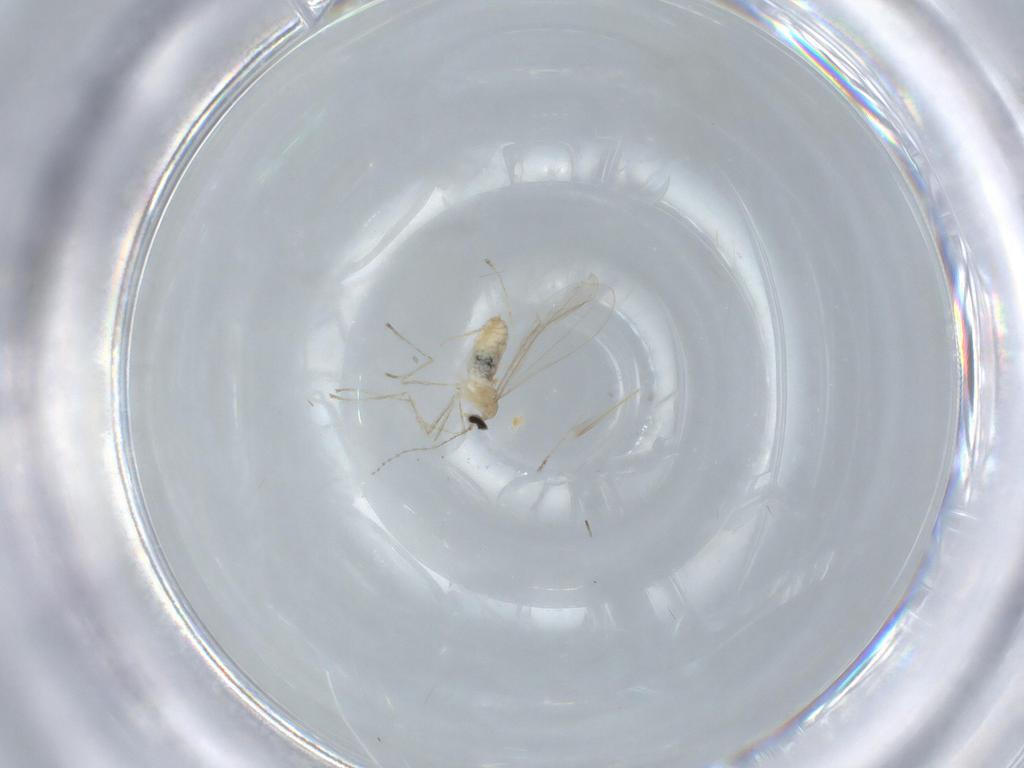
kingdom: Animalia
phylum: Arthropoda
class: Insecta
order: Diptera
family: Cecidomyiidae
